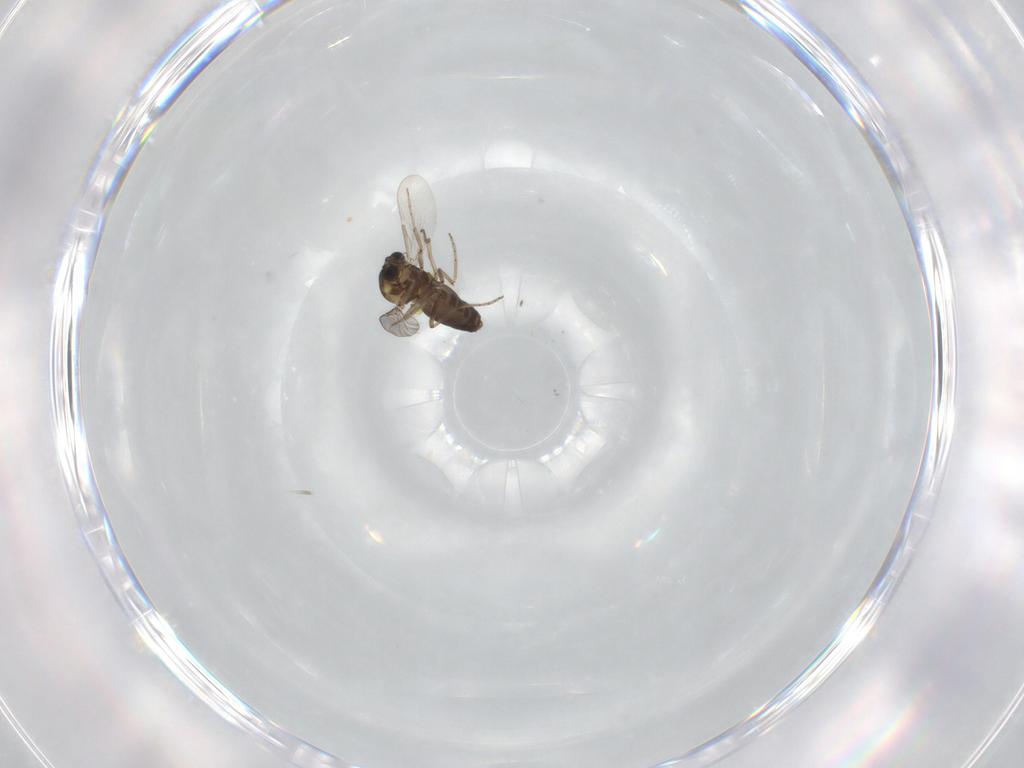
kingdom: Animalia
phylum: Arthropoda
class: Insecta
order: Diptera
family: Ceratopogonidae
